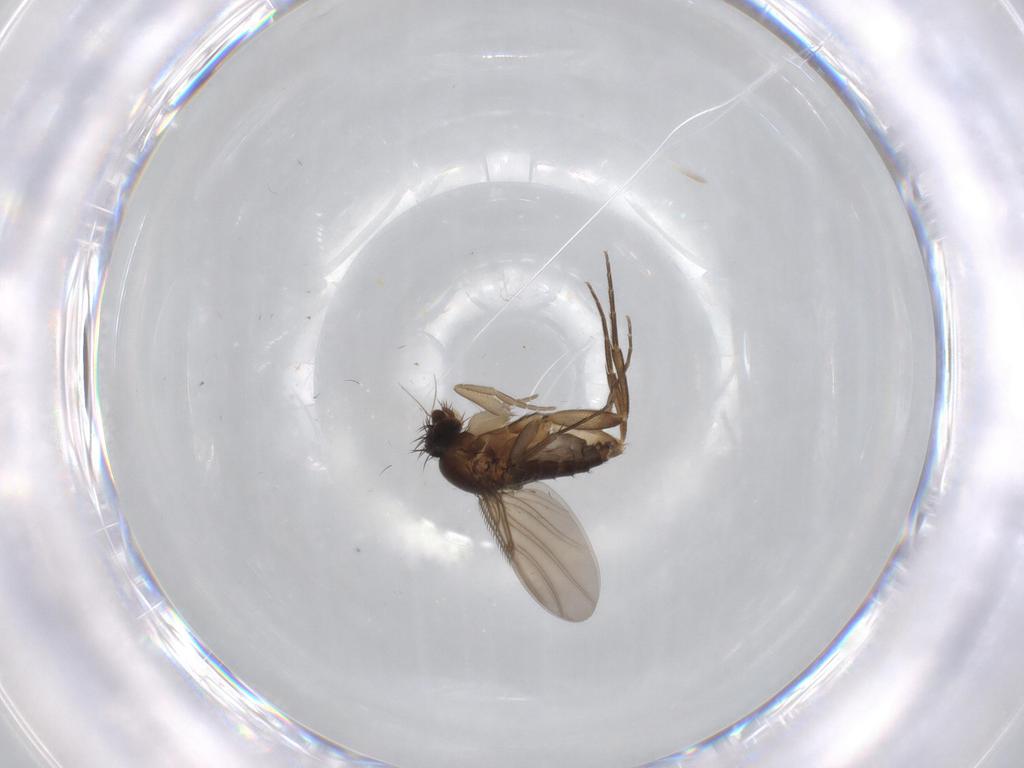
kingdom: Animalia
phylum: Arthropoda
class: Insecta
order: Diptera
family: Phoridae
